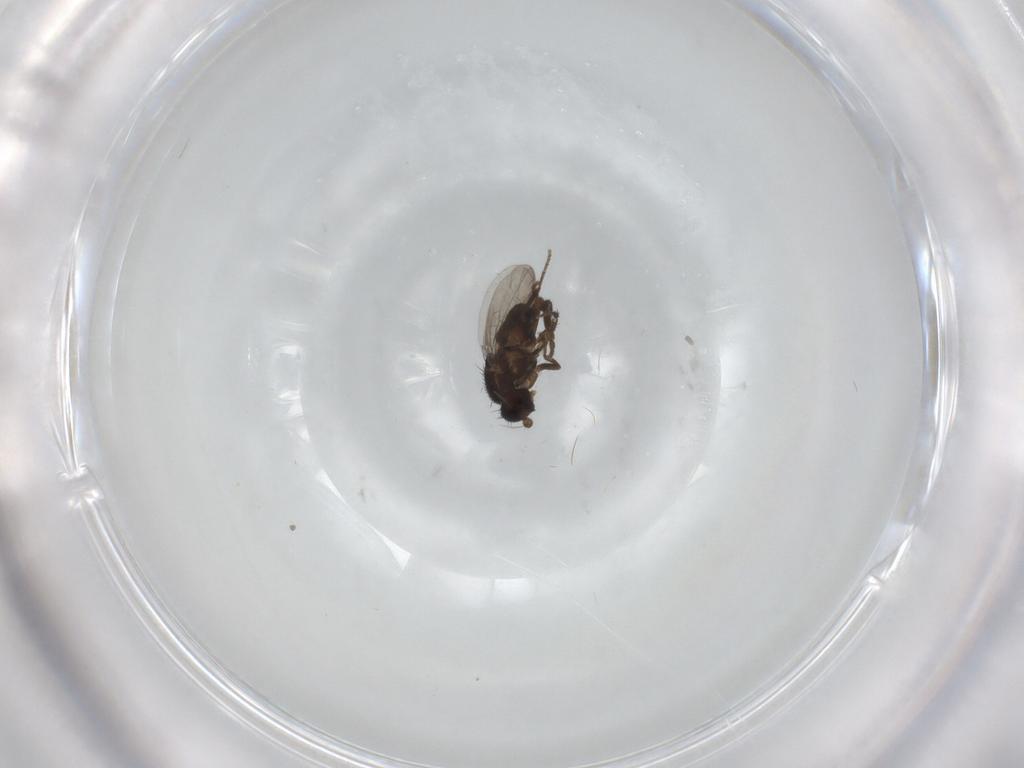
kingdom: Animalia
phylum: Arthropoda
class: Insecta
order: Diptera
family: Sphaeroceridae
